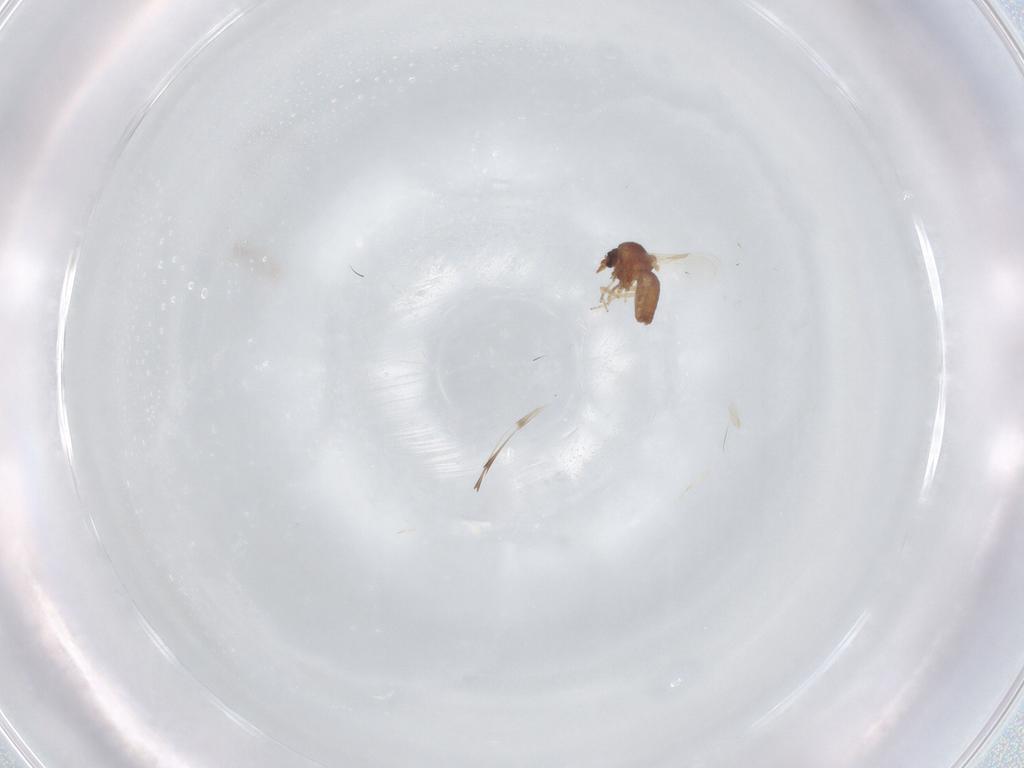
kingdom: Animalia
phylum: Arthropoda
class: Insecta
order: Diptera
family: Ceratopogonidae
